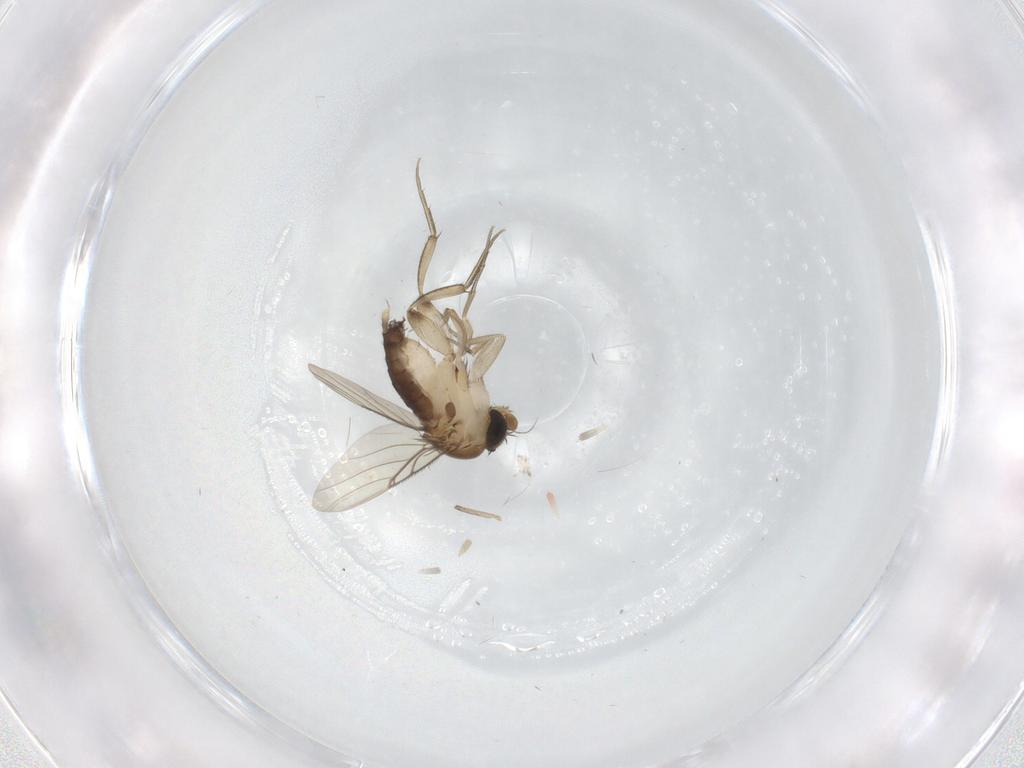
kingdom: Animalia
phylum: Arthropoda
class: Insecta
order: Diptera
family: Phoridae
